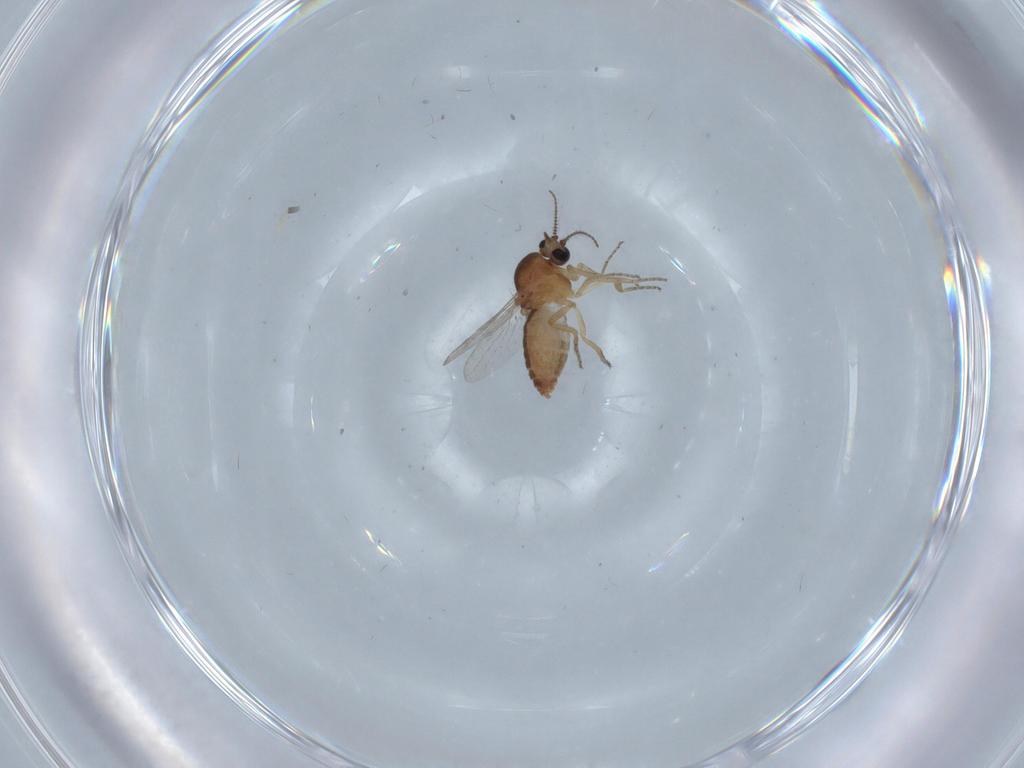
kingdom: Animalia
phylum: Arthropoda
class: Insecta
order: Diptera
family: Ceratopogonidae
